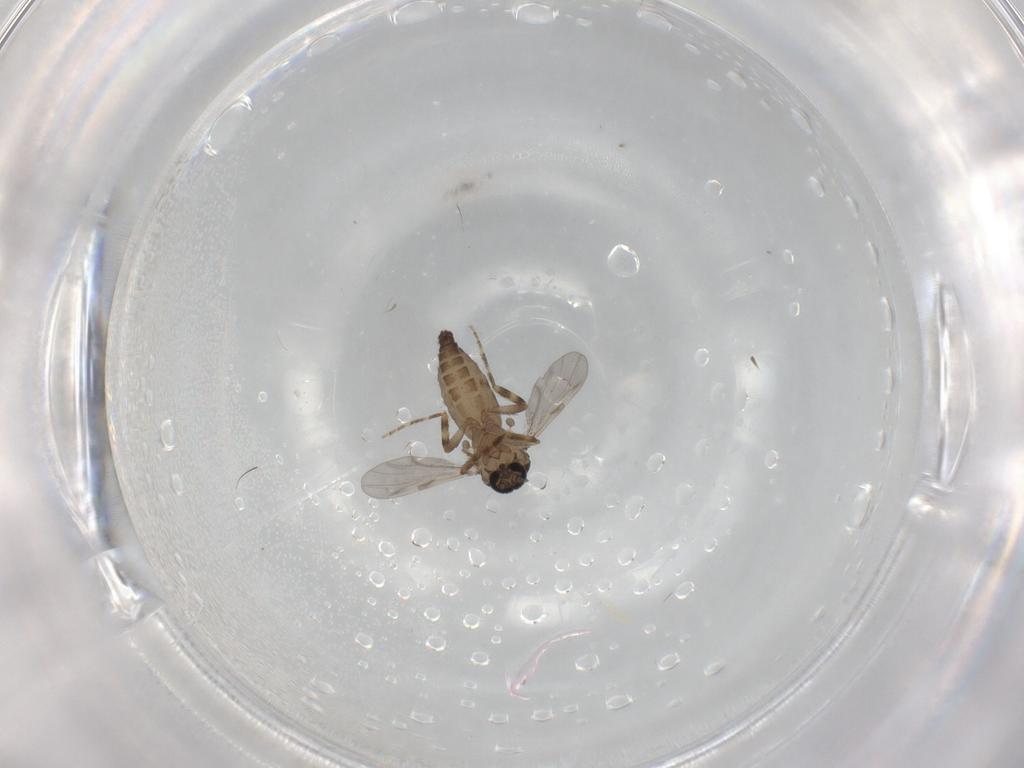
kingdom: Animalia
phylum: Arthropoda
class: Insecta
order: Diptera
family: Ceratopogonidae
